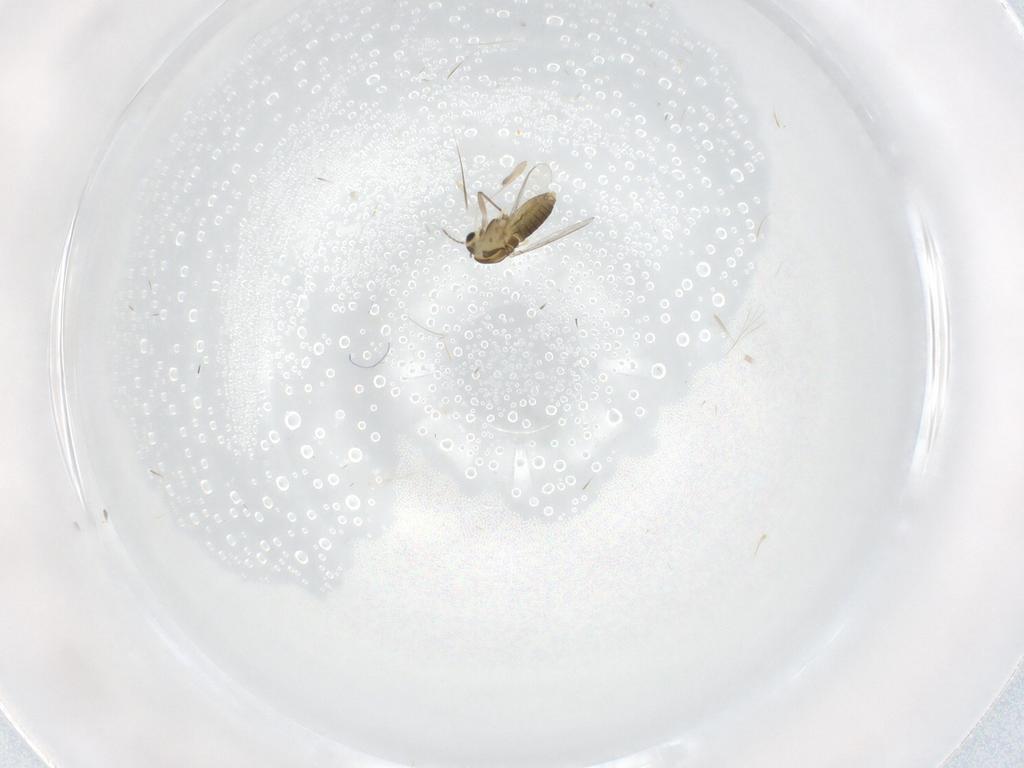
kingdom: Animalia
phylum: Arthropoda
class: Insecta
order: Diptera
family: Chironomidae
